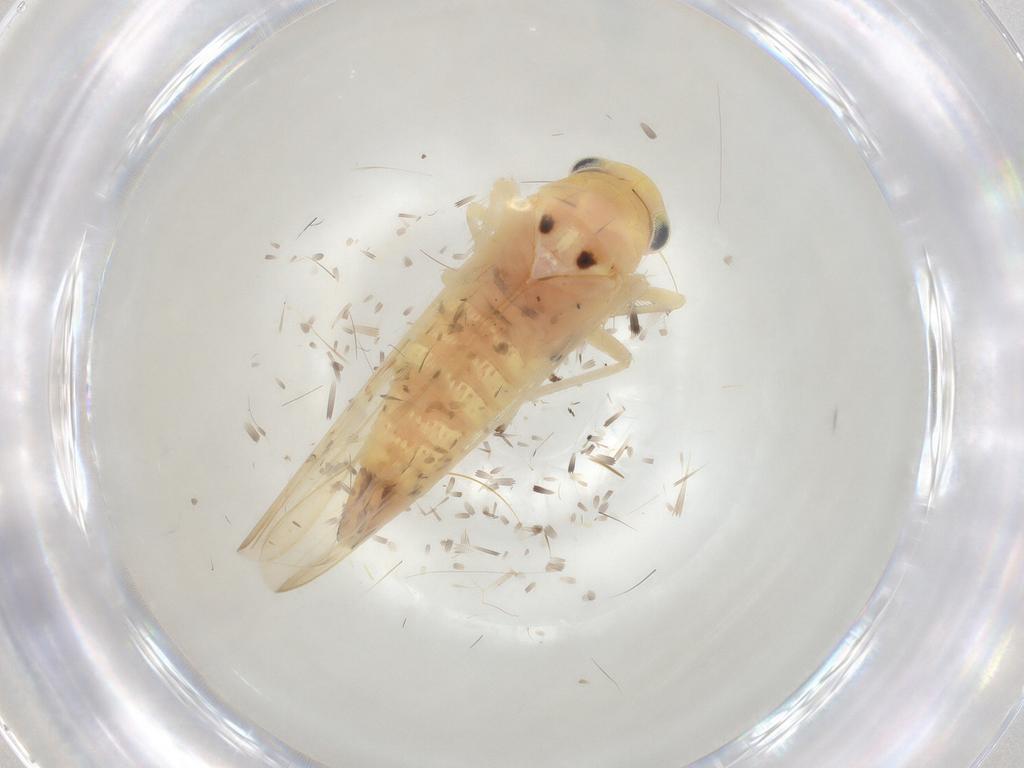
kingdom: Animalia
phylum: Arthropoda
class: Insecta
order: Hemiptera
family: Cicadellidae
